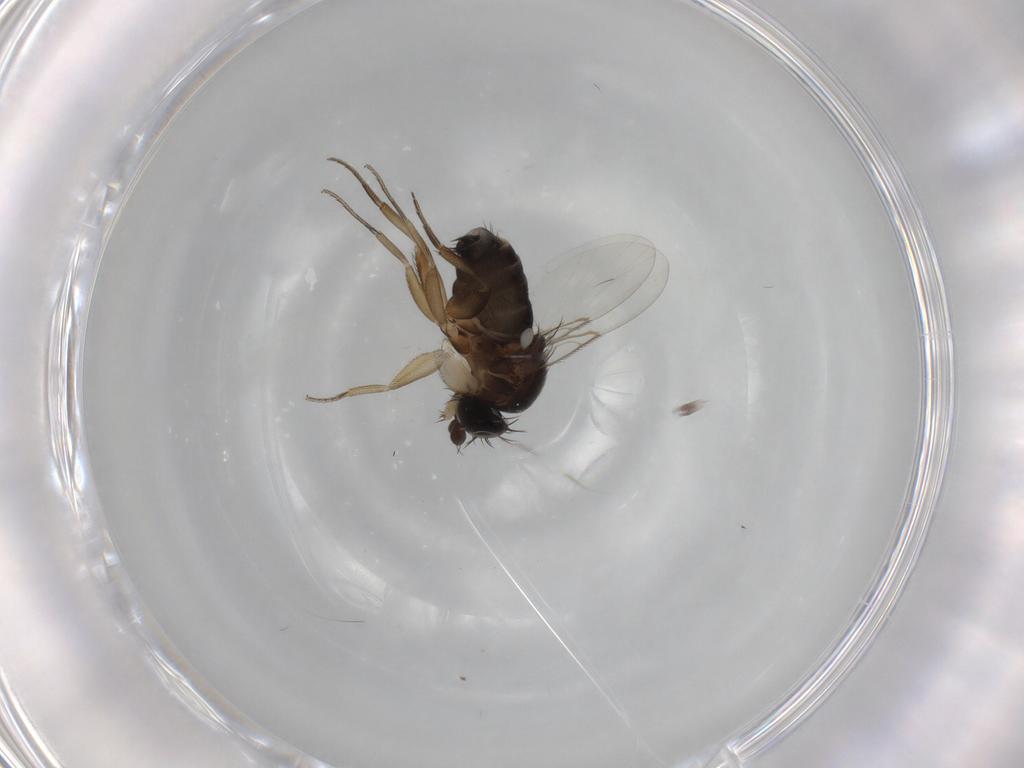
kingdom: Animalia
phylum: Arthropoda
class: Insecta
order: Diptera
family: Phoridae
